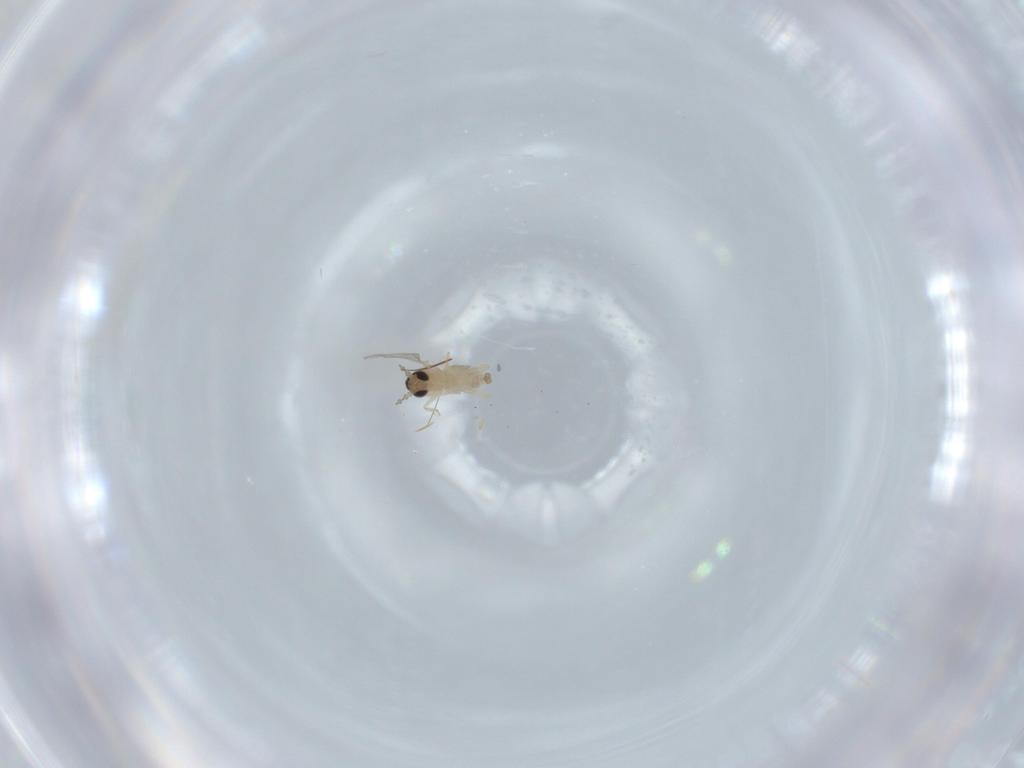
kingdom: Animalia
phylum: Arthropoda
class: Insecta
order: Diptera
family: Cecidomyiidae
